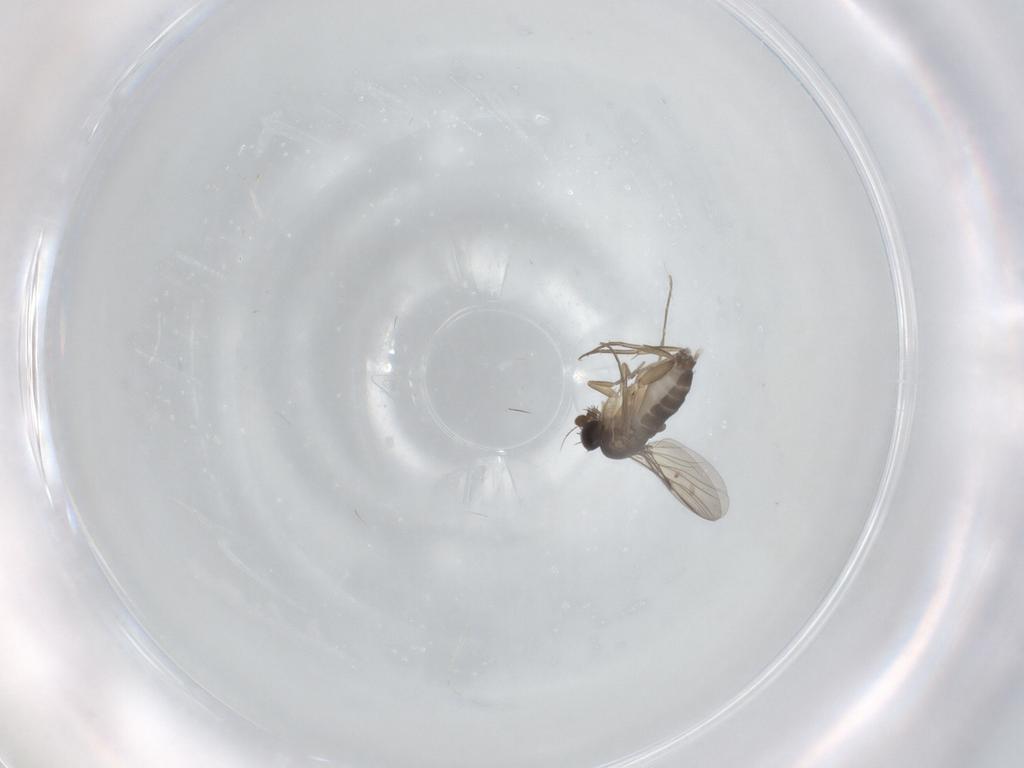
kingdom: Animalia
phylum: Arthropoda
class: Insecta
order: Diptera
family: Phoridae
